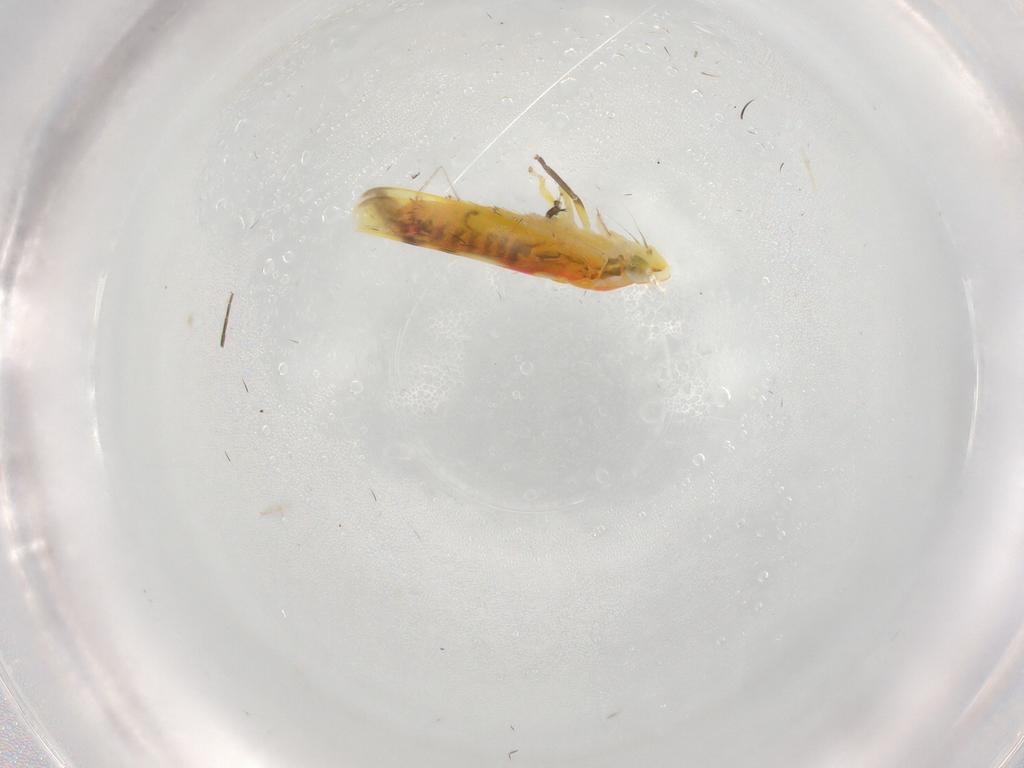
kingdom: Animalia
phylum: Arthropoda
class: Insecta
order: Hemiptera
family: Cicadellidae
